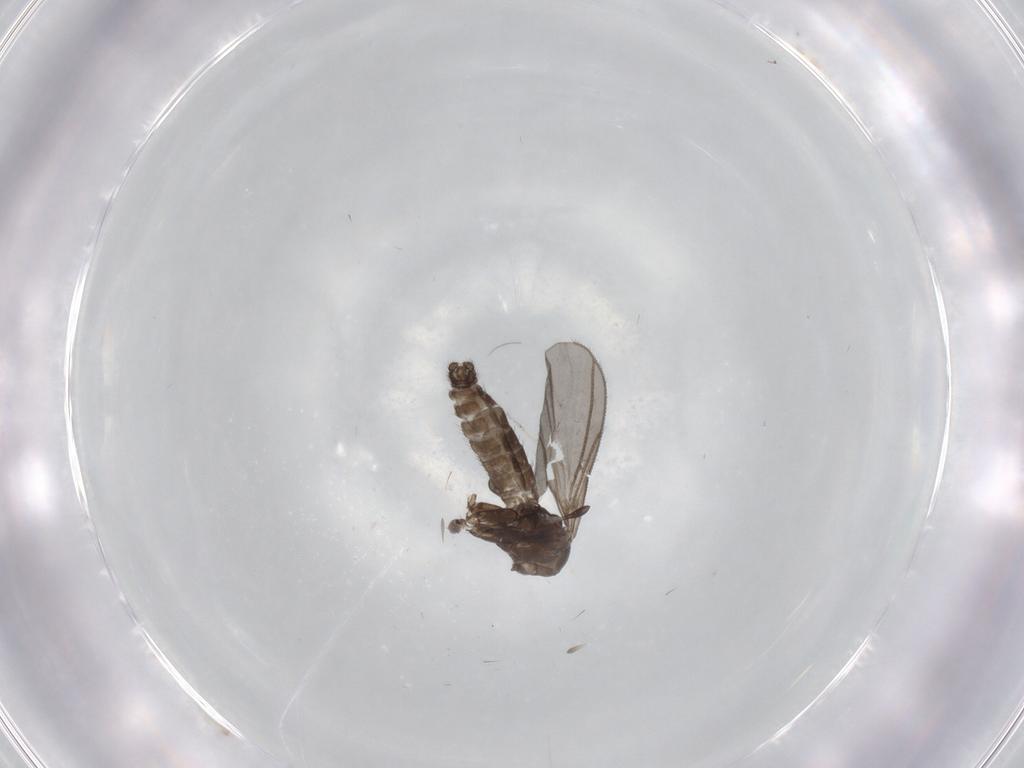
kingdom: Animalia
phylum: Arthropoda
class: Insecta
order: Diptera
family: Sciaridae
